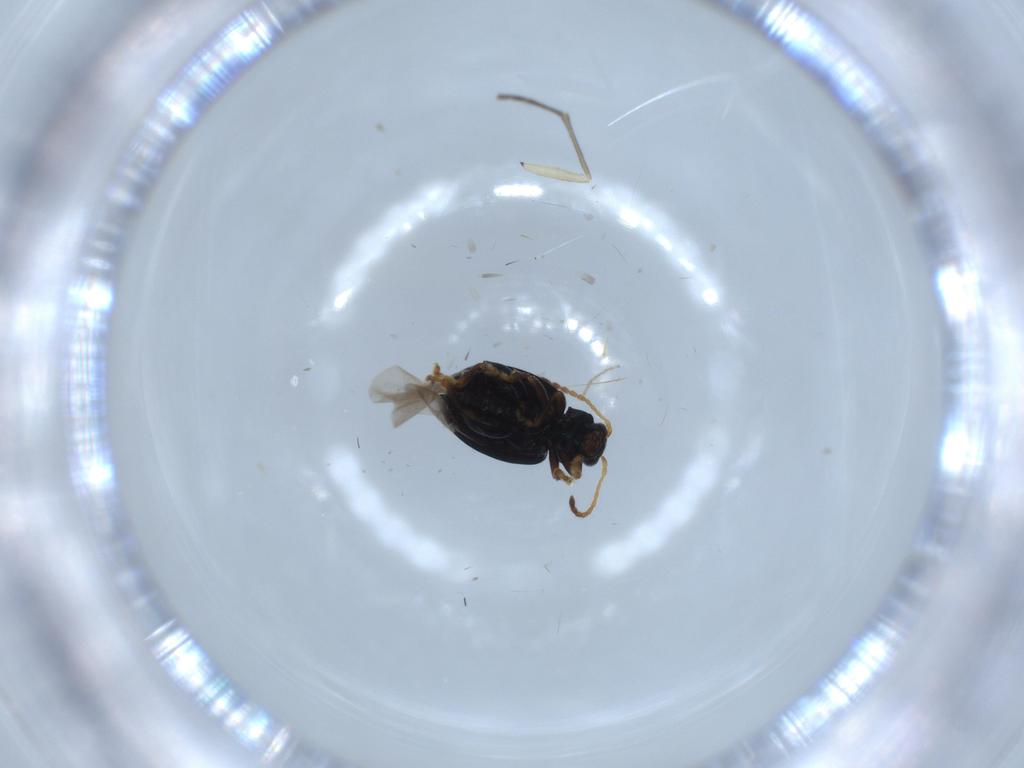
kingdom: Animalia
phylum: Arthropoda
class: Insecta
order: Coleoptera
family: Chrysomelidae
